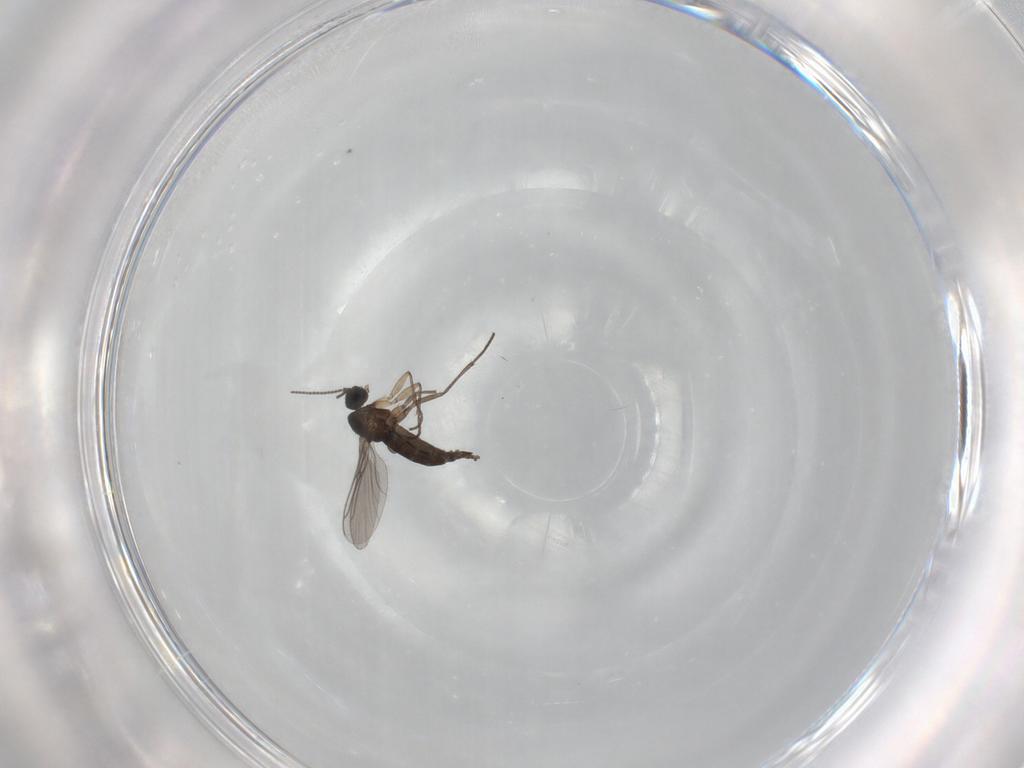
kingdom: Animalia
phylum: Arthropoda
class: Insecta
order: Diptera
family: Sciaridae
